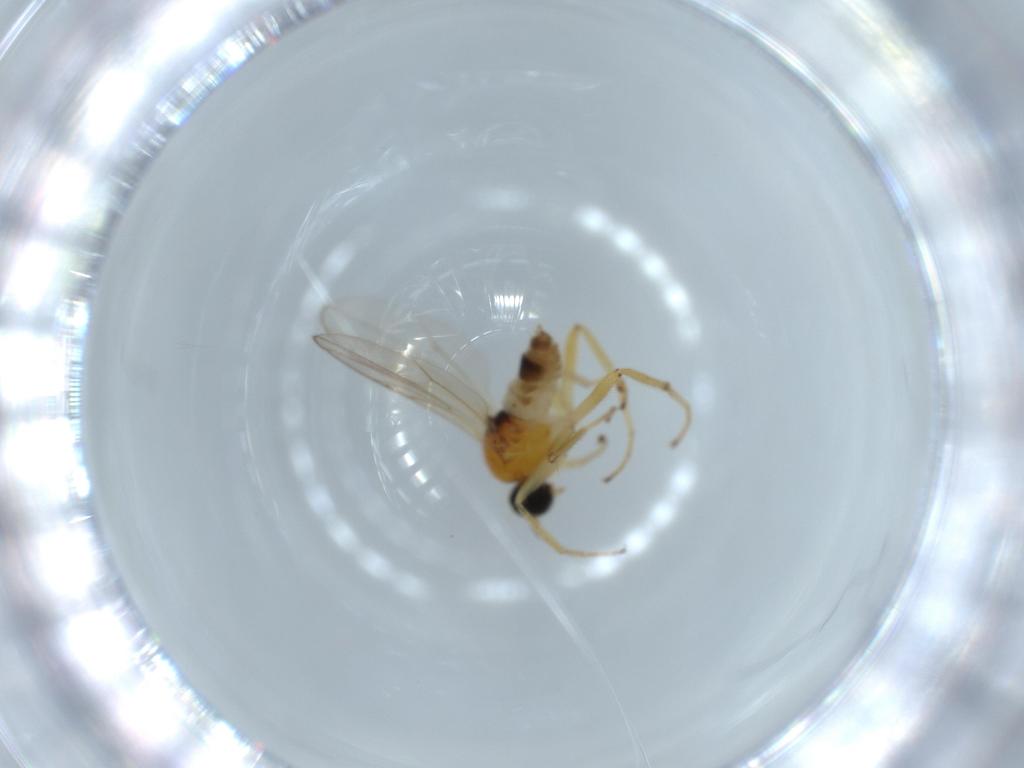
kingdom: Animalia
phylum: Arthropoda
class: Insecta
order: Diptera
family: Hybotidae
